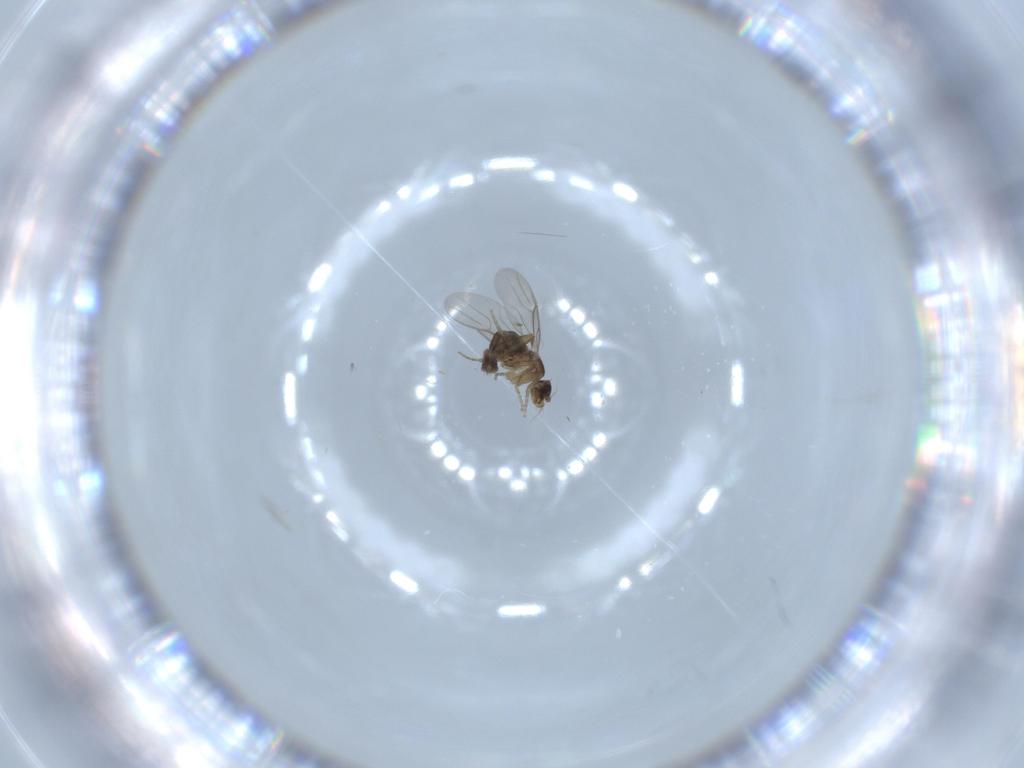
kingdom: Animalia
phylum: Arthropoda
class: Insecta
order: Diptera
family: Phoridae
